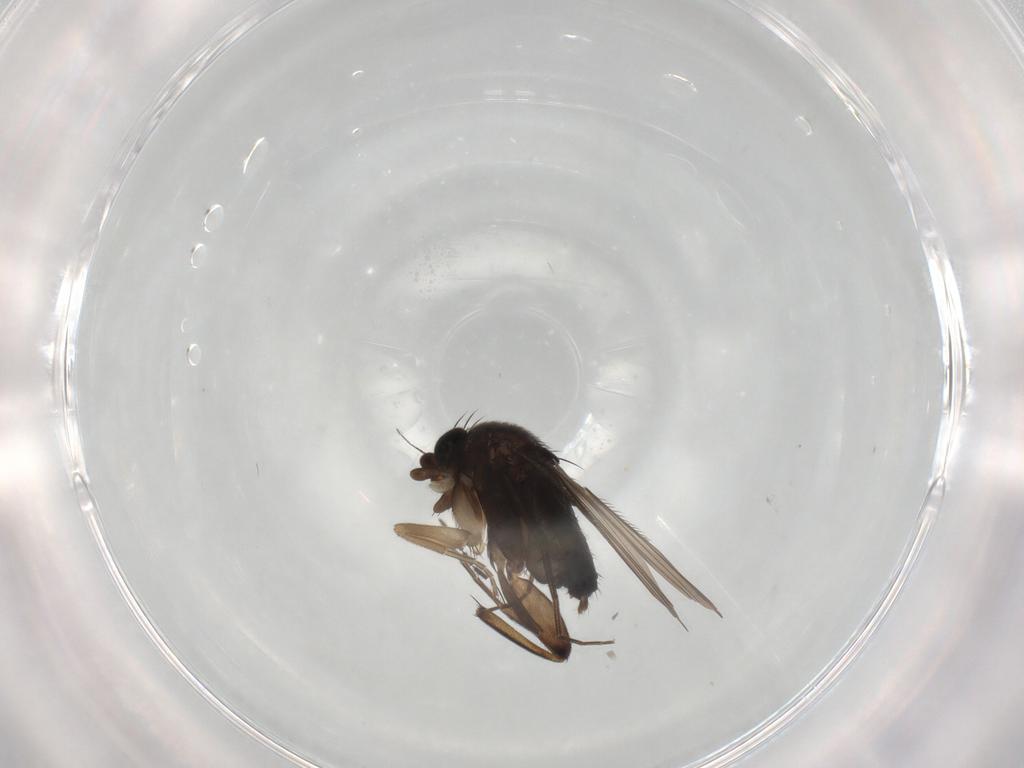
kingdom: Animalia
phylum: Arthropoda
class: Insecta
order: Diptera
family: Phoridae
